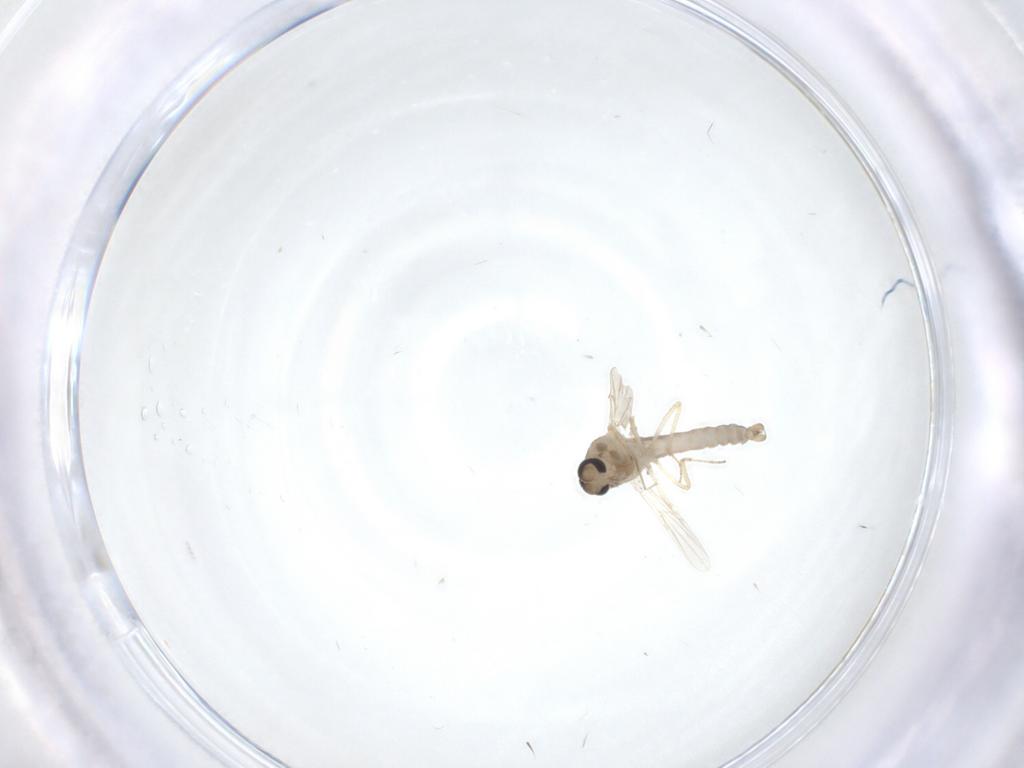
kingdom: Animalia
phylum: Arthropoda
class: Insecta
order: Diptera
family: Ceratopogonidae
